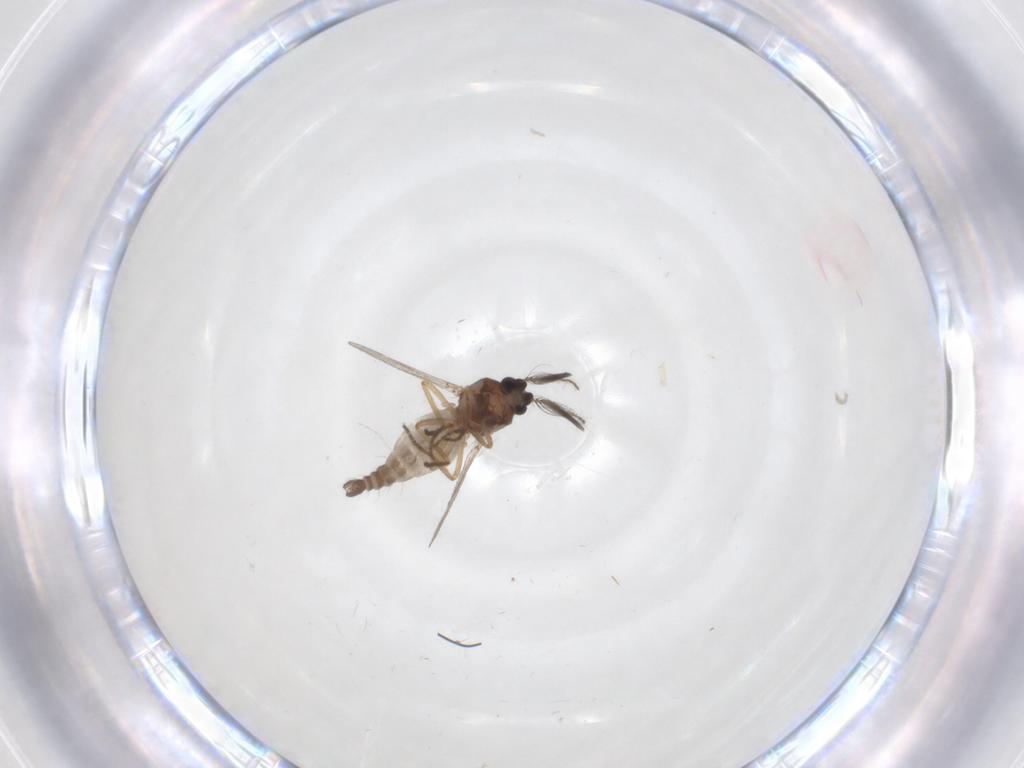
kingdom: Animalia
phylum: Arthropoda
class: Insecta
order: Diptera
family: Ceratopogonidae
